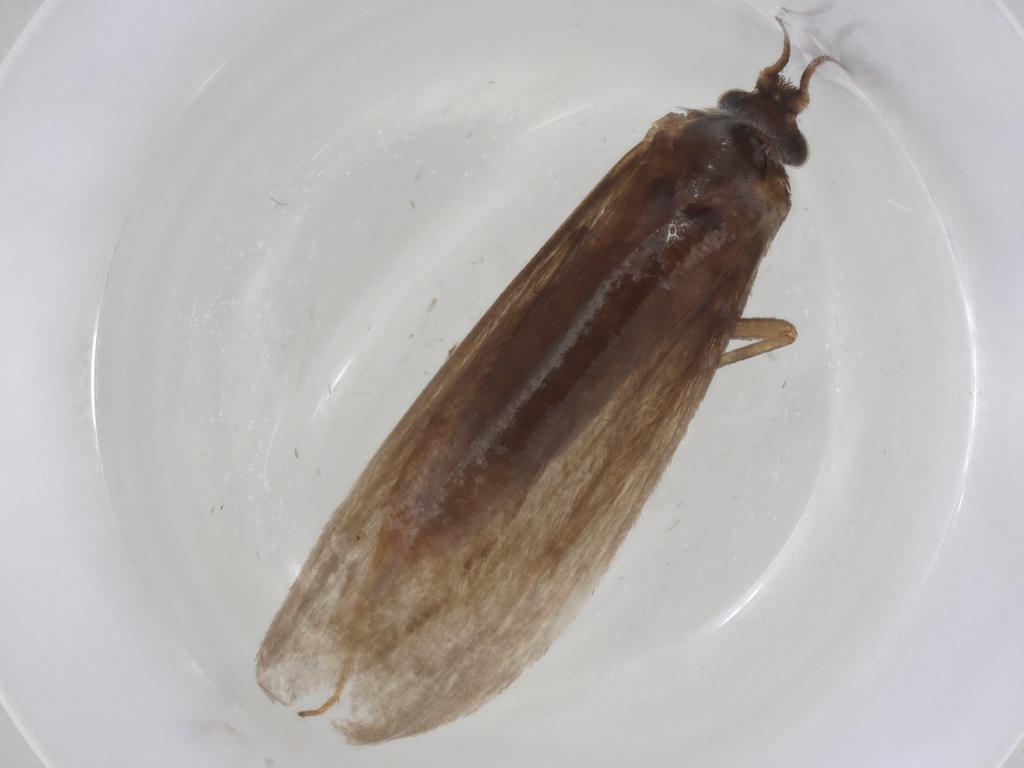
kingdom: Animalia
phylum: Arthropoda
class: Insecta
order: Lepidoptera
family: Adelidae
